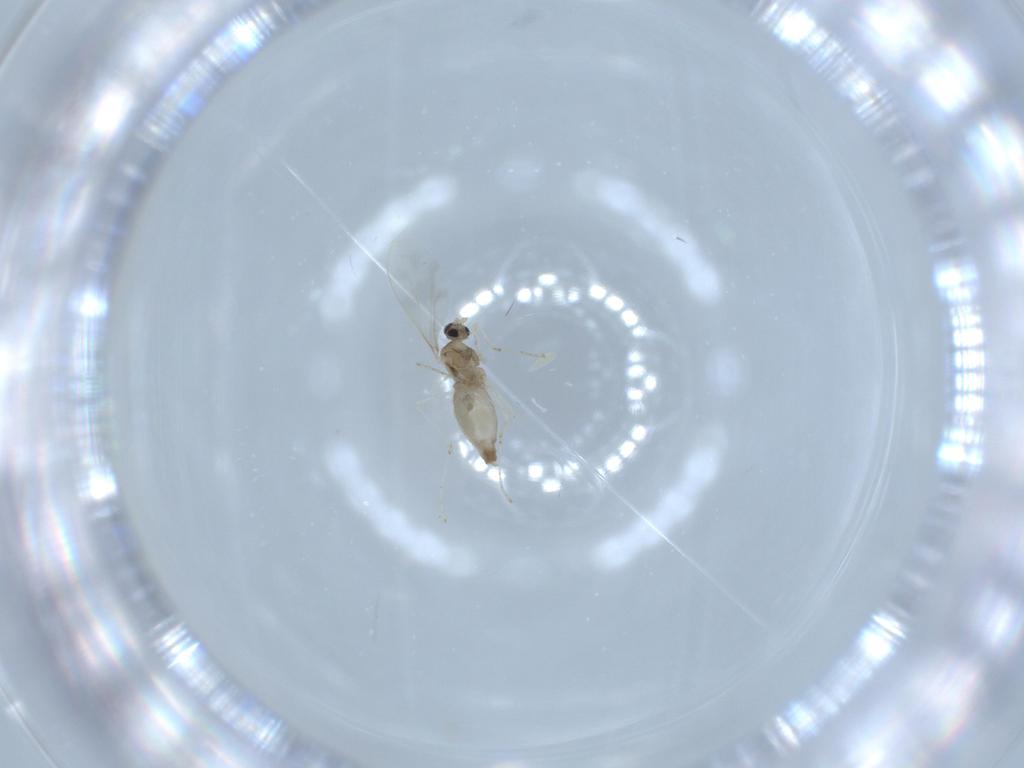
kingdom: Animalia
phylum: Arthropoda
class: Insecta
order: Diptera
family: Cecidomyiidae
